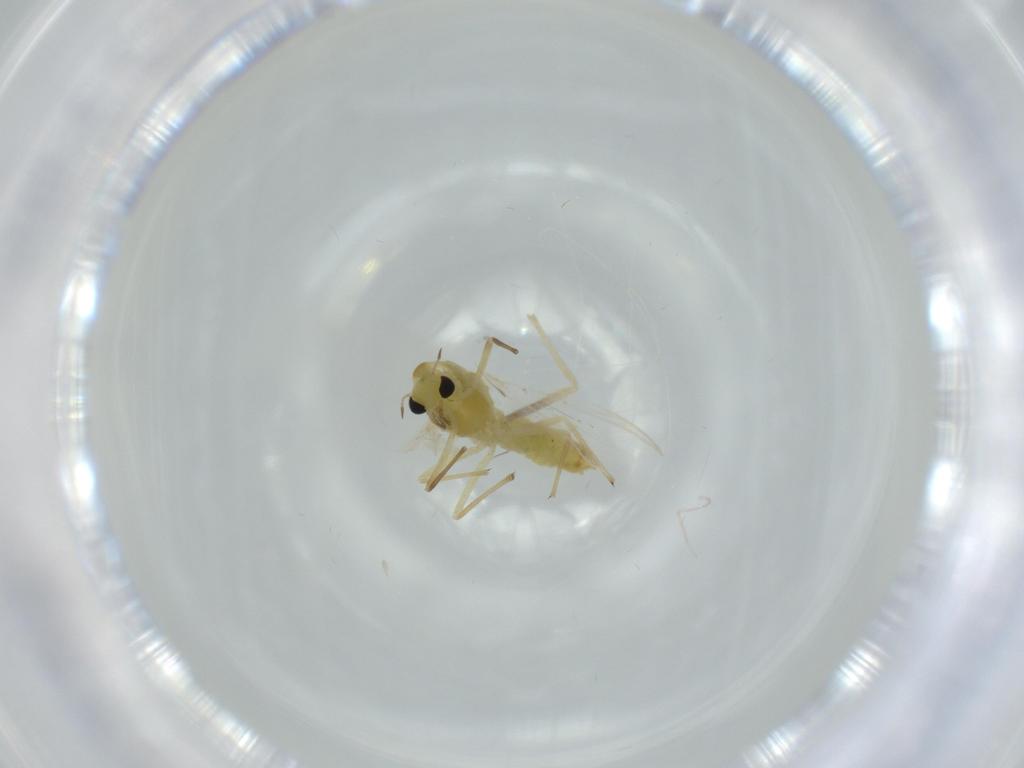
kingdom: Animalia
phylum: Arthropoda
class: Insecta
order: Diptera
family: Chironomidae
